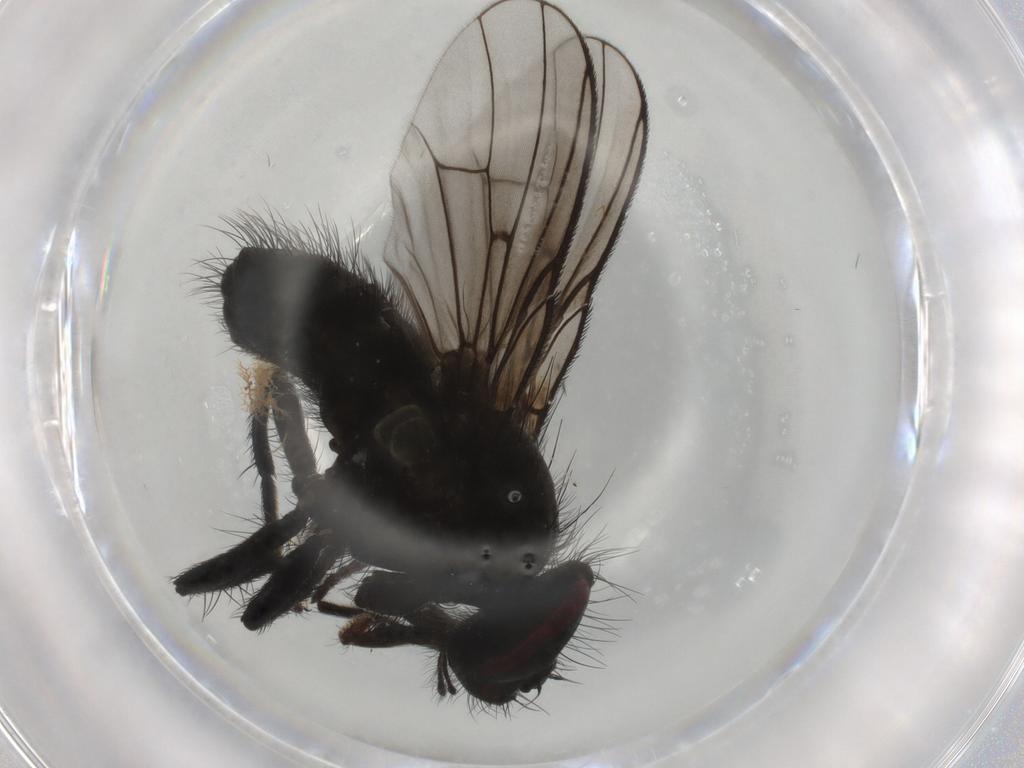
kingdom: Animalia
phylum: Arthropoda
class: Insecta
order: Diptera
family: Muscidae
